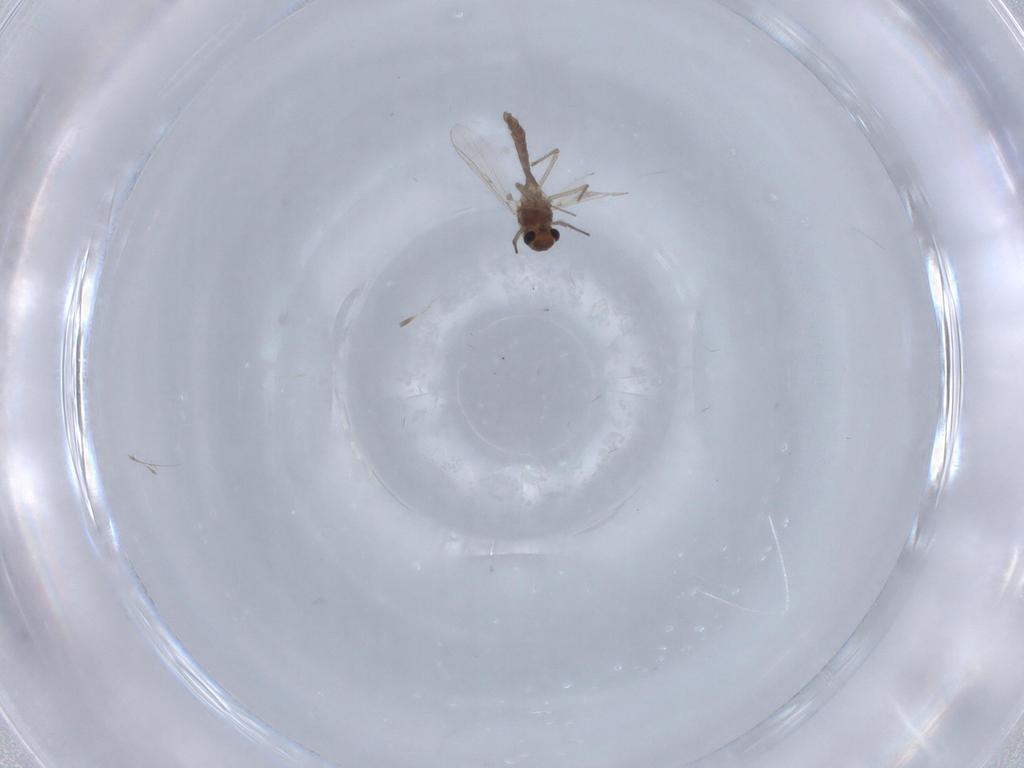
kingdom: Animalia
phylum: Arthropoda
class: Insecta
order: Diptera
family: Chironomidae
